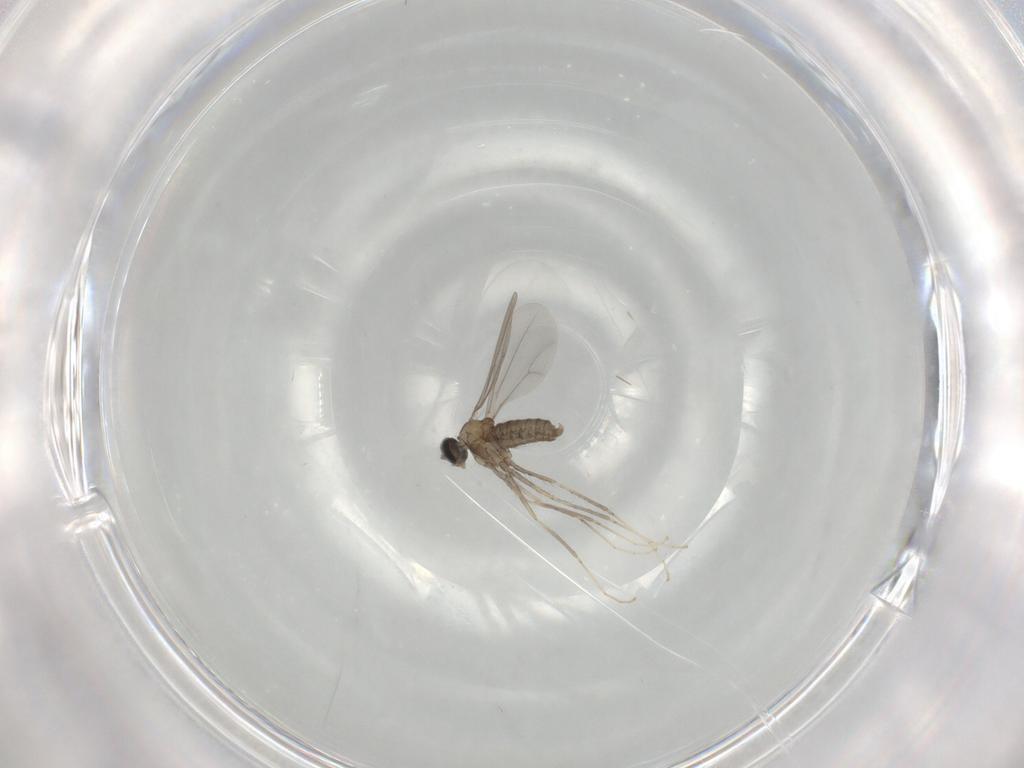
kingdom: Animalia
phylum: Arthropoda
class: Insecta
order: Diptera
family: Cecidomyiidae
